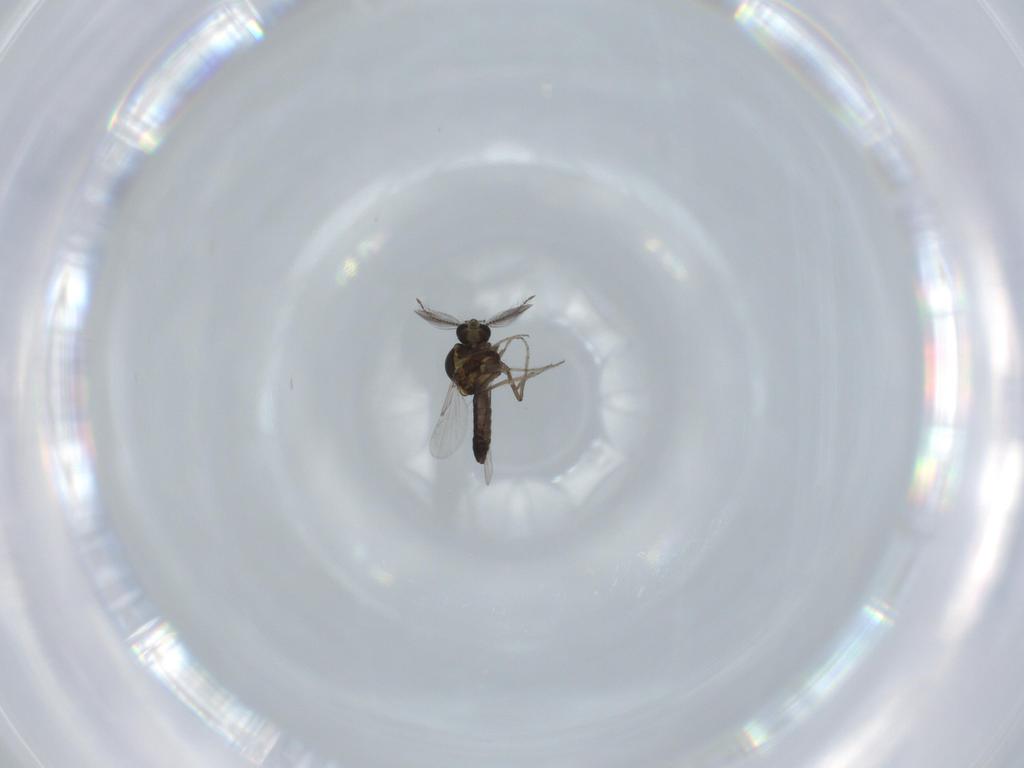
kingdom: Animalia
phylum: Arthropoda
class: Insecta
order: Diptera
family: Ceratopogonidae
